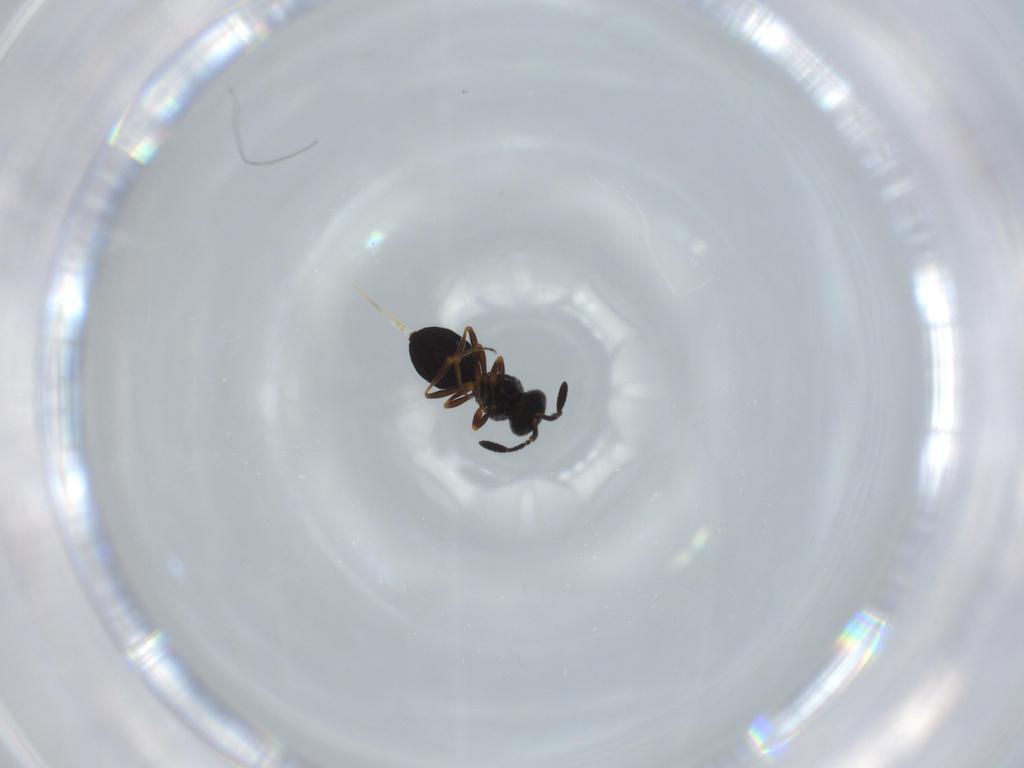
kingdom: Animalia
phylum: Arthropoda
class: Insecta
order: Hymenoptera
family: Scelionidae
